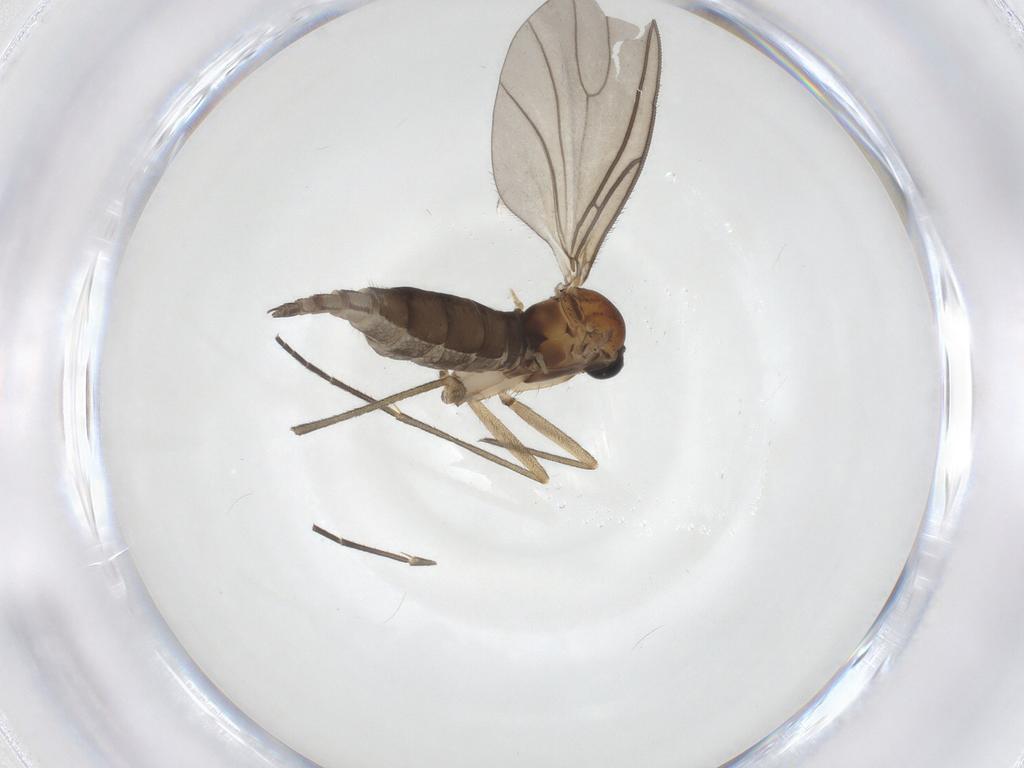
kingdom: Animalia
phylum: Arthropoda
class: Insecta
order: Diptera
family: Sciaridae
